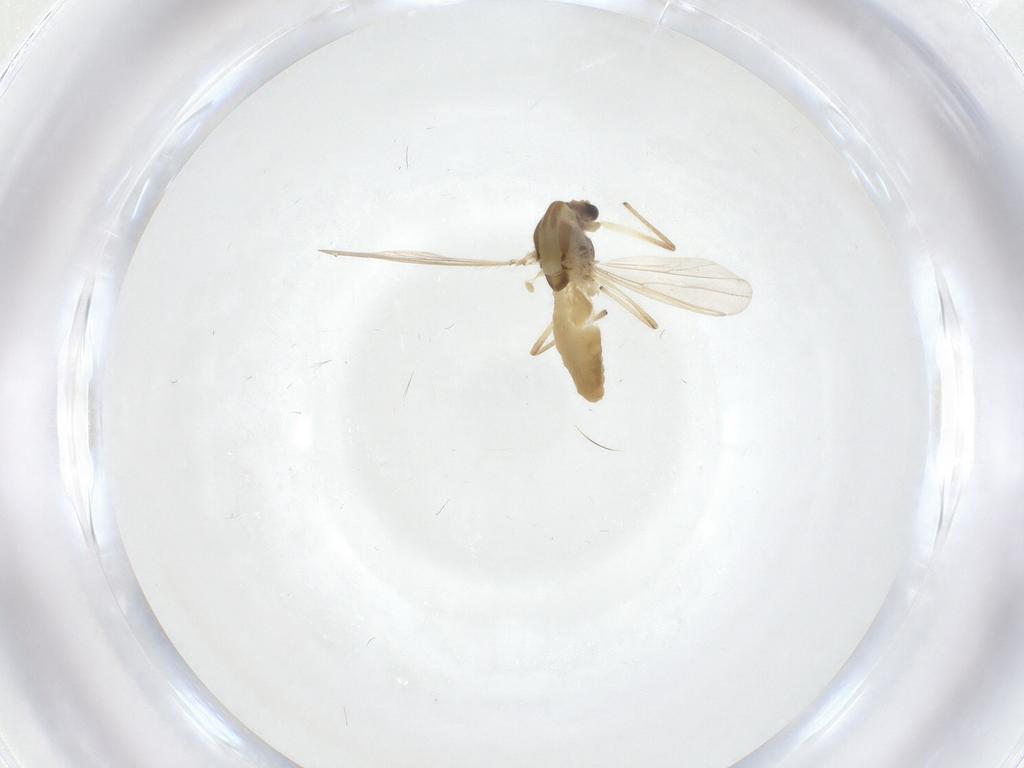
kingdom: Animalia
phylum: Arthropoda
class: Insecta
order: Diptera
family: Chironomidae
